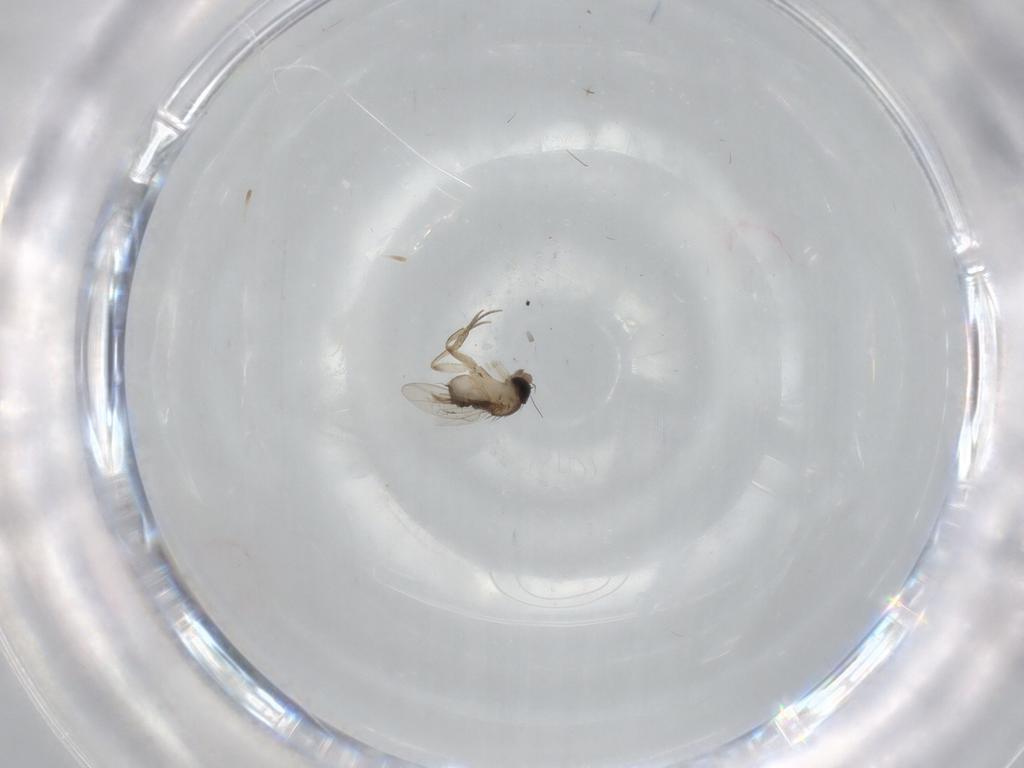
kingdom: Animalia
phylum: Arthropoda
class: Insecta
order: Diptera
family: Phoridae
